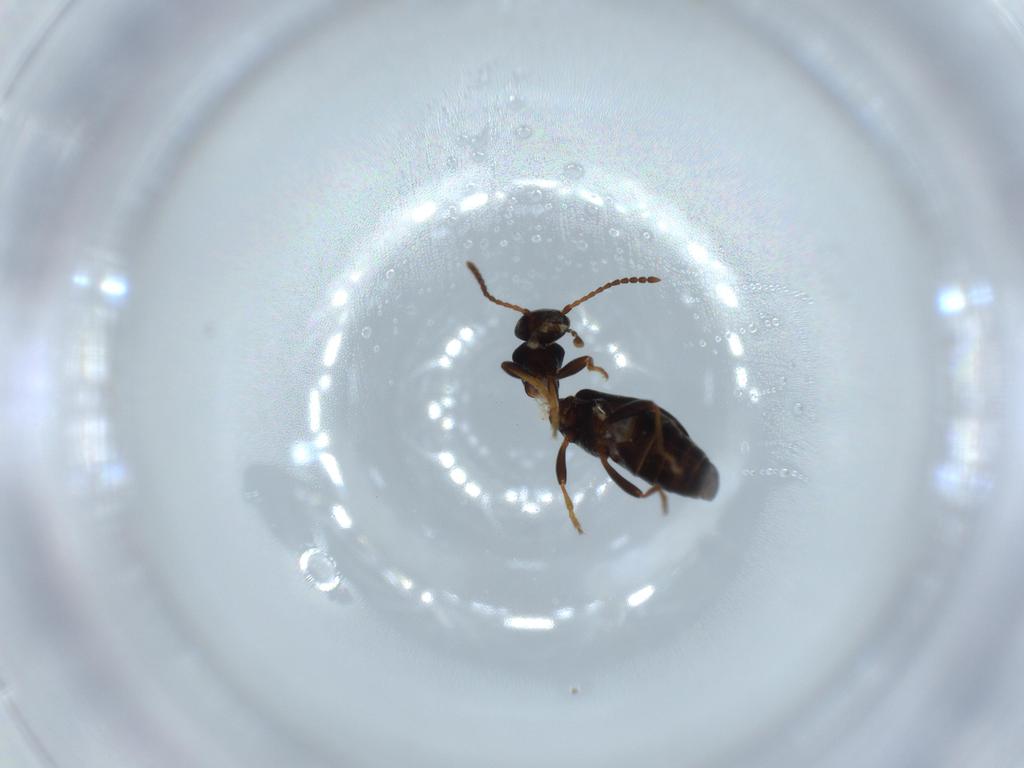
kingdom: Animalia
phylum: Arthropoda
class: Insecta
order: Coleoptera
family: Anthicidae
